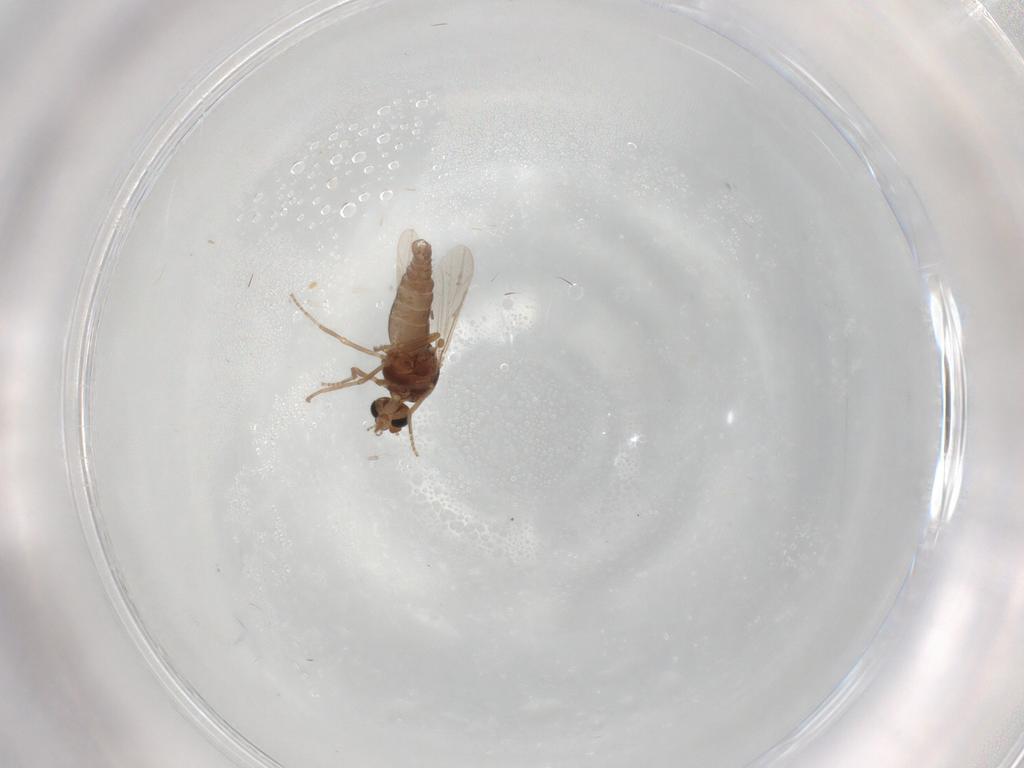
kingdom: Animalia
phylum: Arthropoda
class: Insecta
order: Diptera
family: Ceratopogonidae
